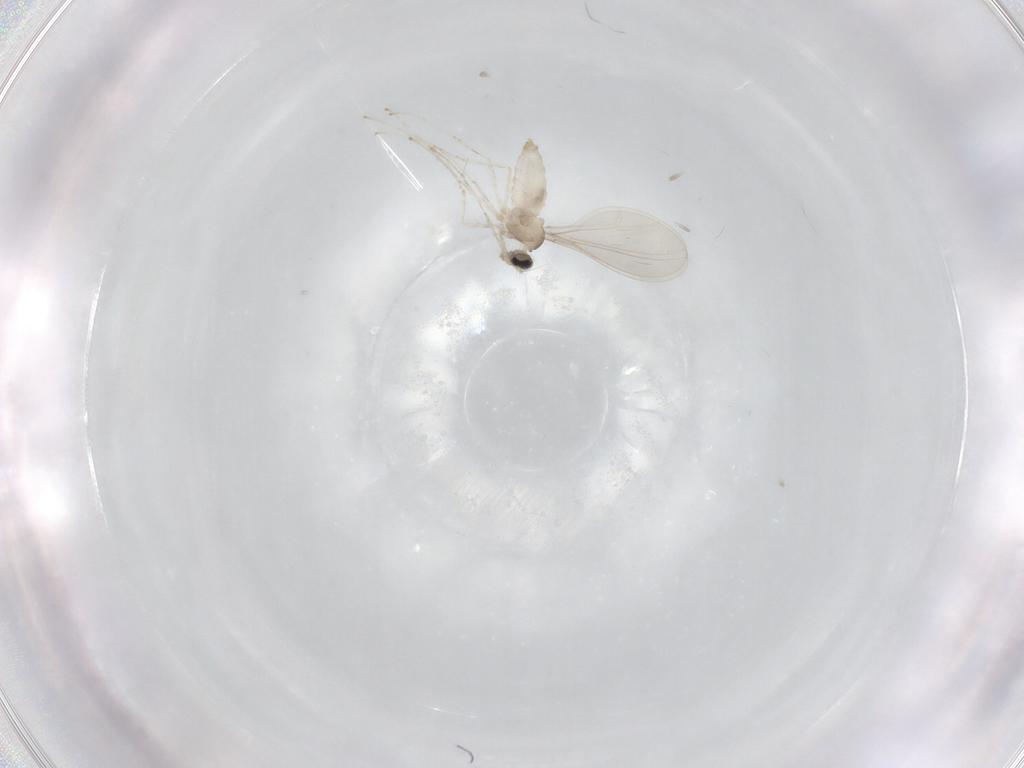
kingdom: Animalia
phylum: Arthropoda
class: Insecta
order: Diptera
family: Cecidomyiidae
